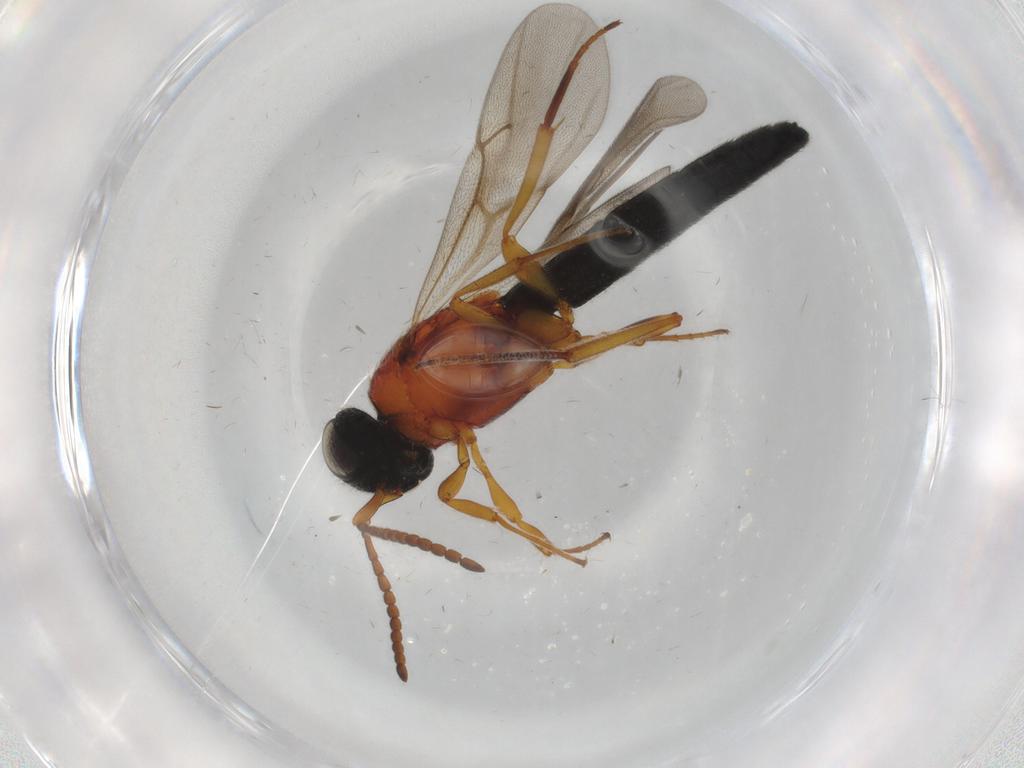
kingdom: Animalia
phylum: Arthropoda
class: Insecta
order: Hymenoptera
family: Scelionidae
